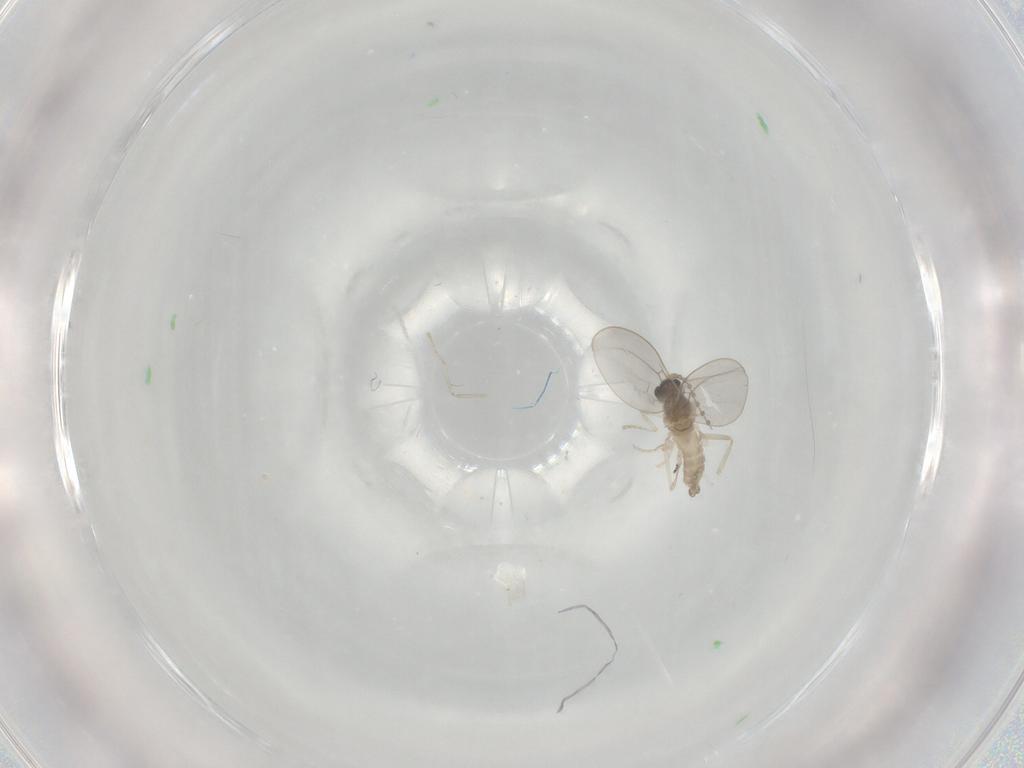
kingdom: Animalia
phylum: Arthropoda
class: Insecta
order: Diptera
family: Cecidomyiidae
